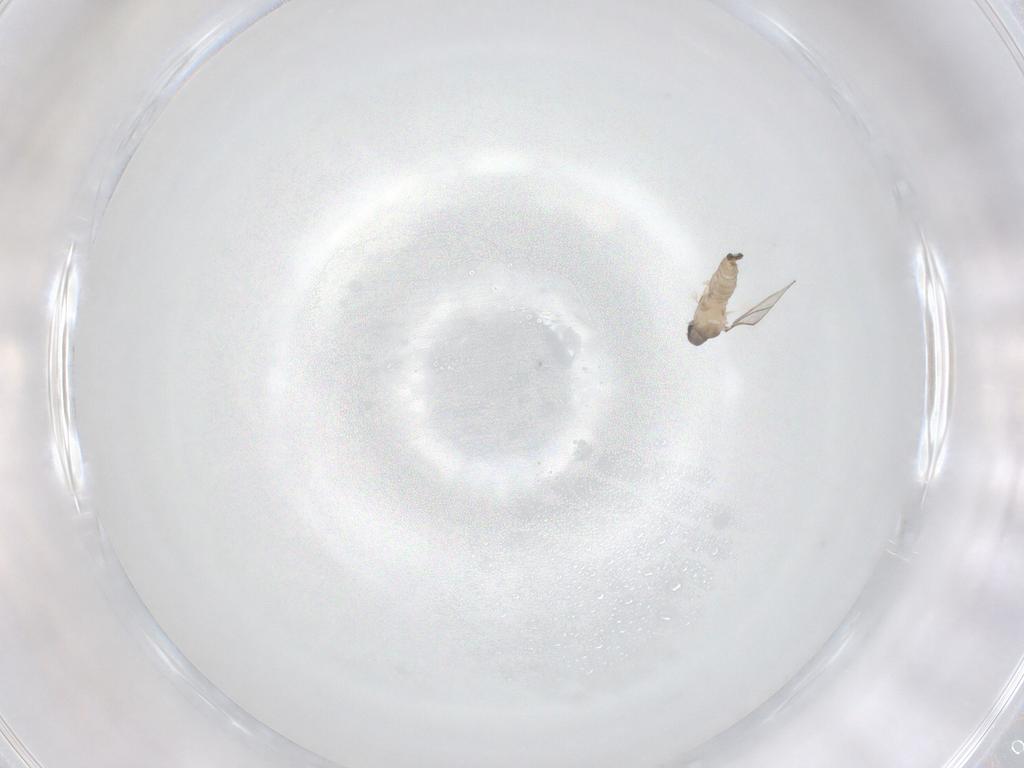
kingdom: Animalia
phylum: Arthropoda
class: Insecta
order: Diptera
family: Cecidomyiidae
